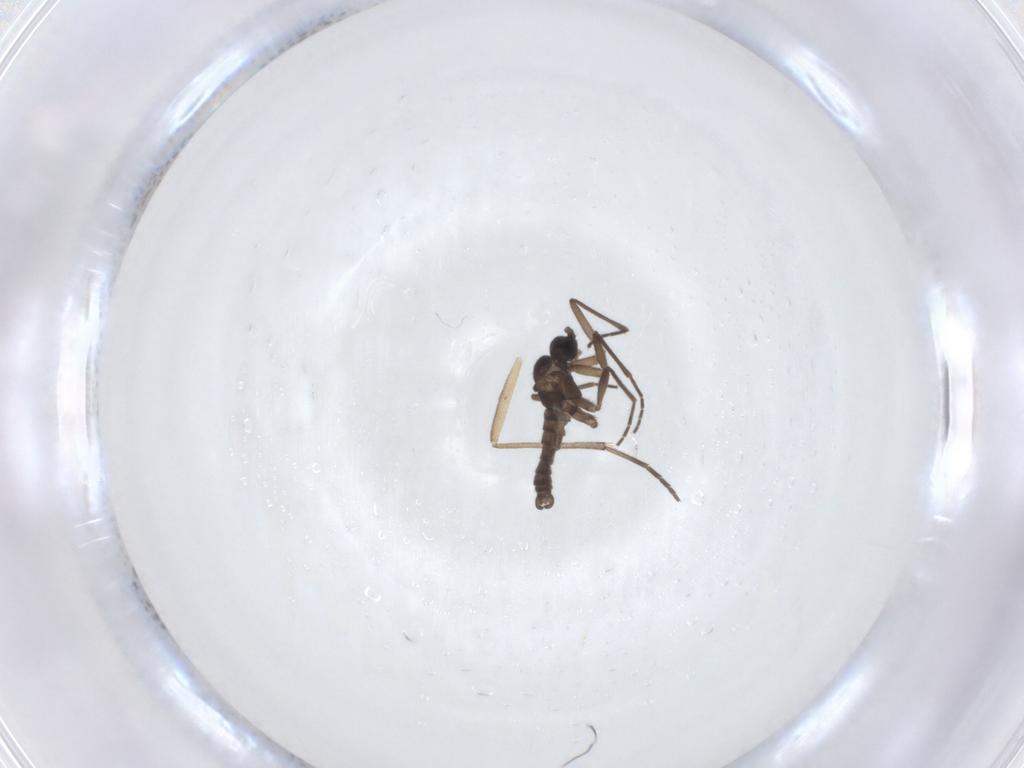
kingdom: Animalia
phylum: Arthropoda
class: Insecta
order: Diptera
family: Sciaridae
